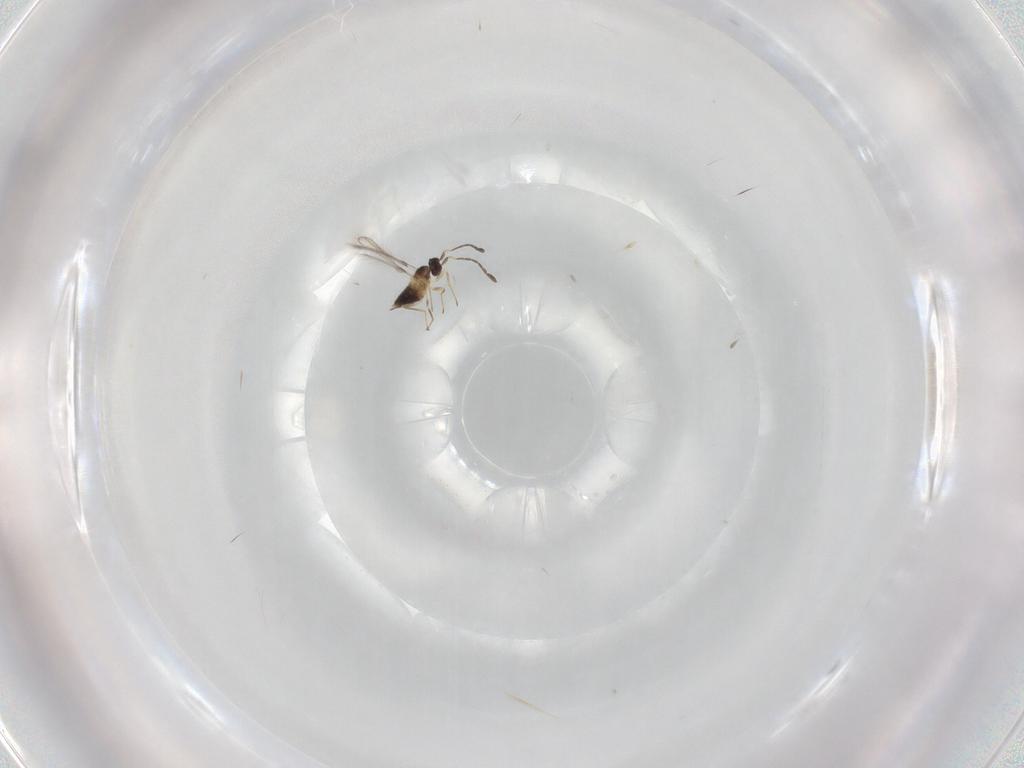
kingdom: Animalia
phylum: Arthropoda
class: Insecta
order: Hymenoptera
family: Mymaridae
